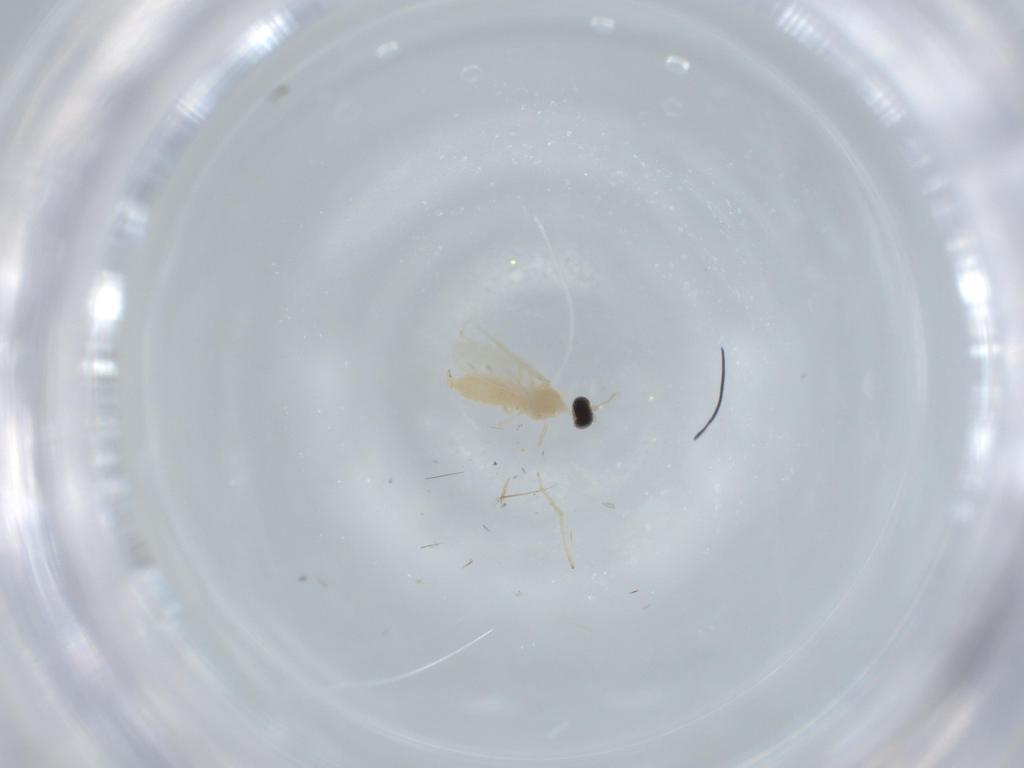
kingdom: Animalia
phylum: Arthropoda
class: Insecta
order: Diptera
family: Cecidomyiidae
